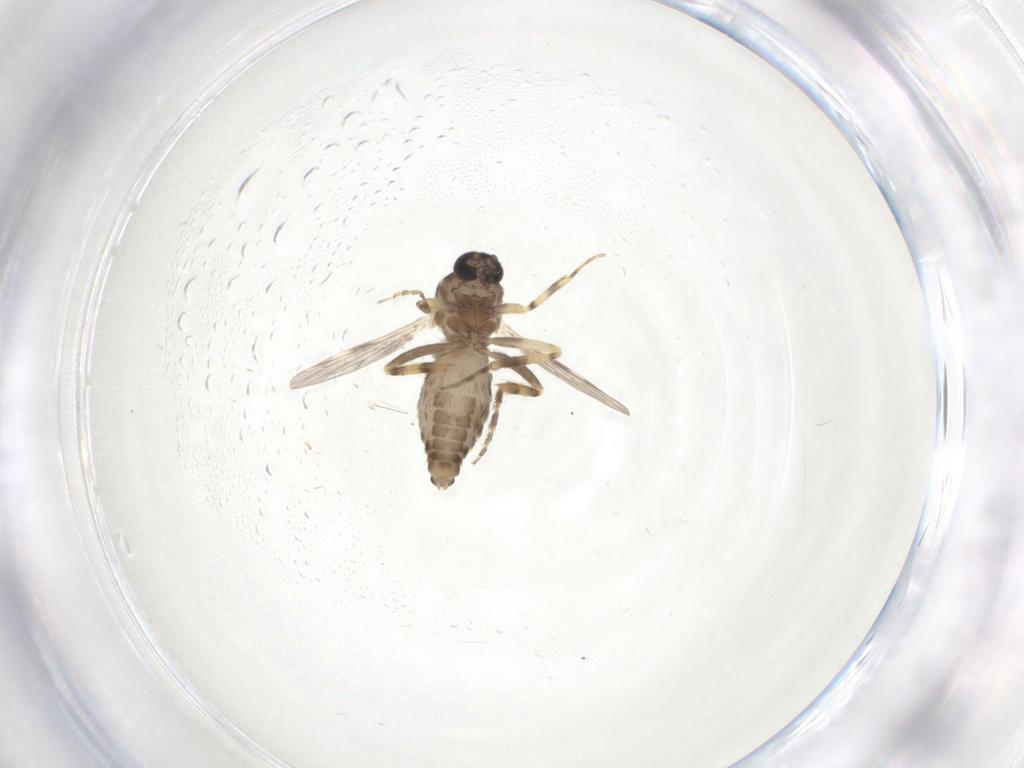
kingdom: Animalia
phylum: Arthropoda
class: Insecta
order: Diptera
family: Ceratopogonidae
